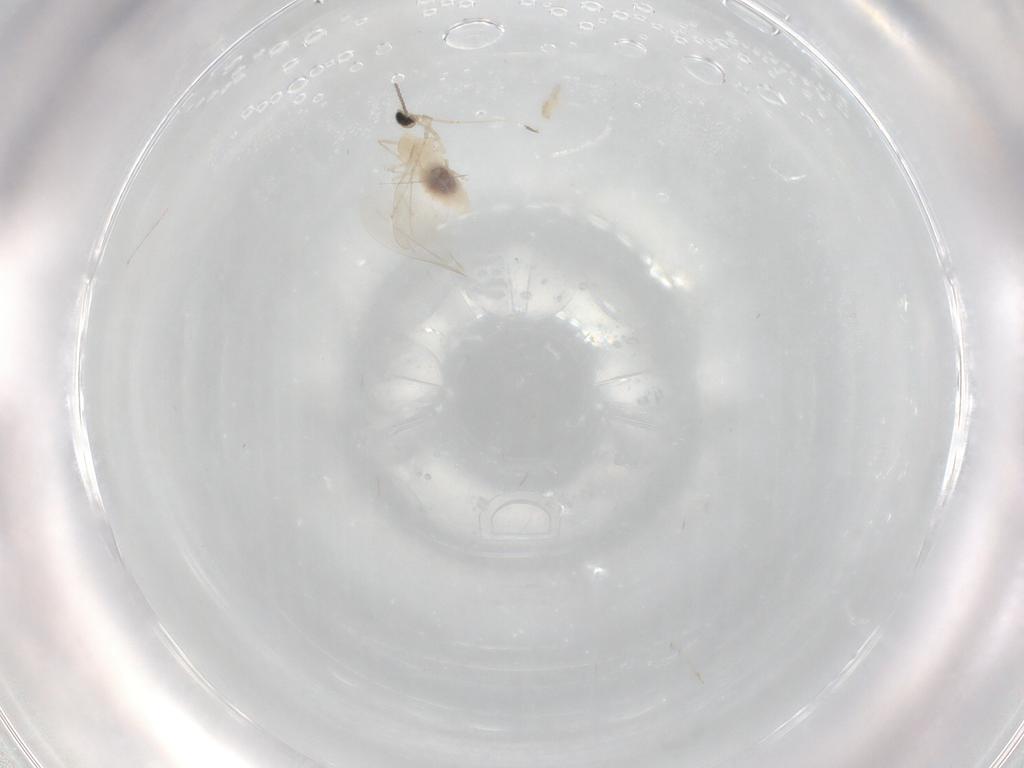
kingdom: Animalia
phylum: Arthropoda
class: Insecta
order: Diptera
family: Cecidomyiidae
